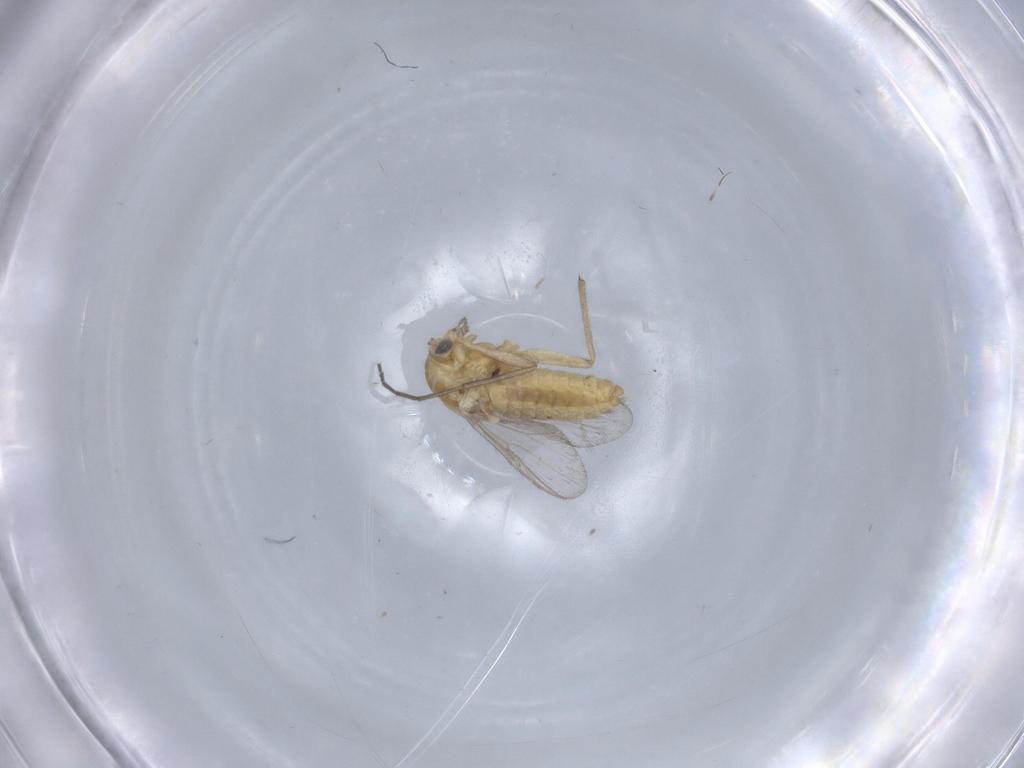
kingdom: Animalia
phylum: Arthropoda
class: Insecta
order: Diptera
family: Chironomidae
